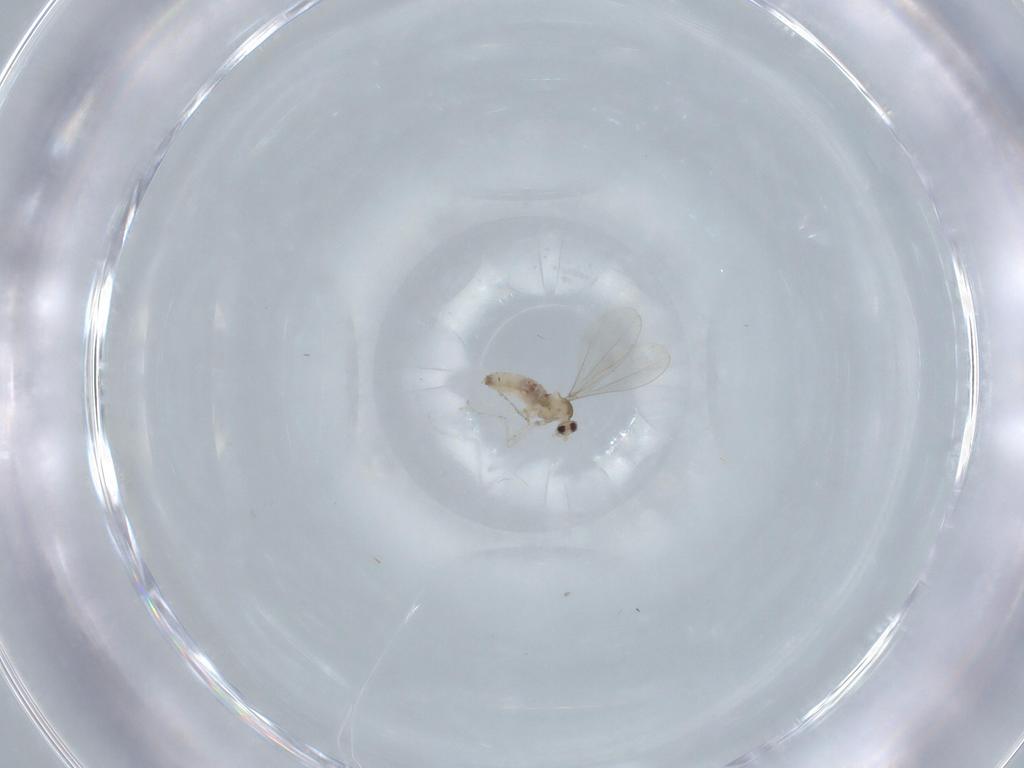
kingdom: Animalia
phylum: Arthropoda
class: Insecta
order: Diptera
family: Cecidomyiidae
